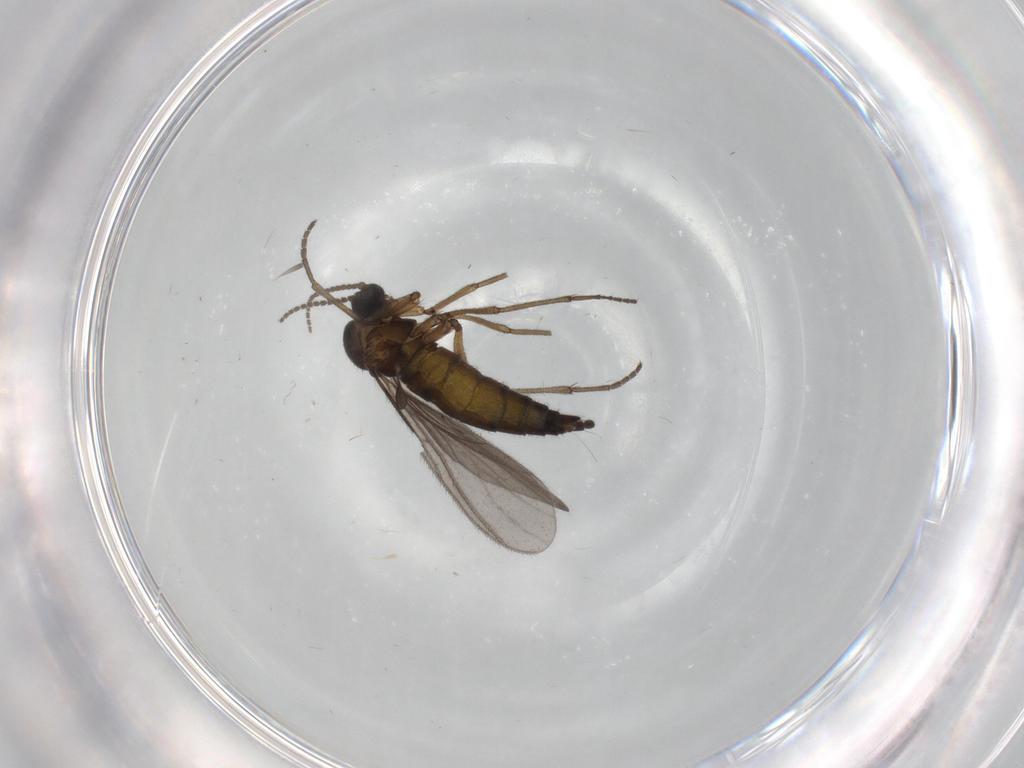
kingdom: Animalia
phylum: Arthropoda
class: Insecta
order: Diptera
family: Sciaridae
